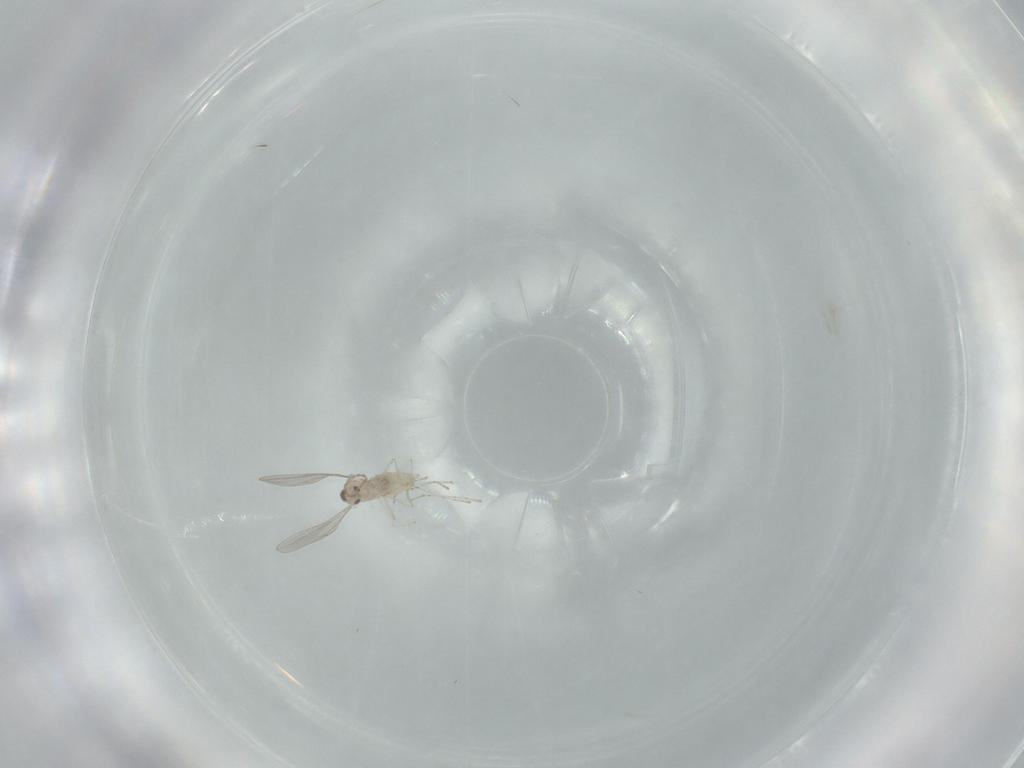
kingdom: Animalia
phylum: Arthropoda
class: Insecta
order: Diptera
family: Cecidomyiidae
